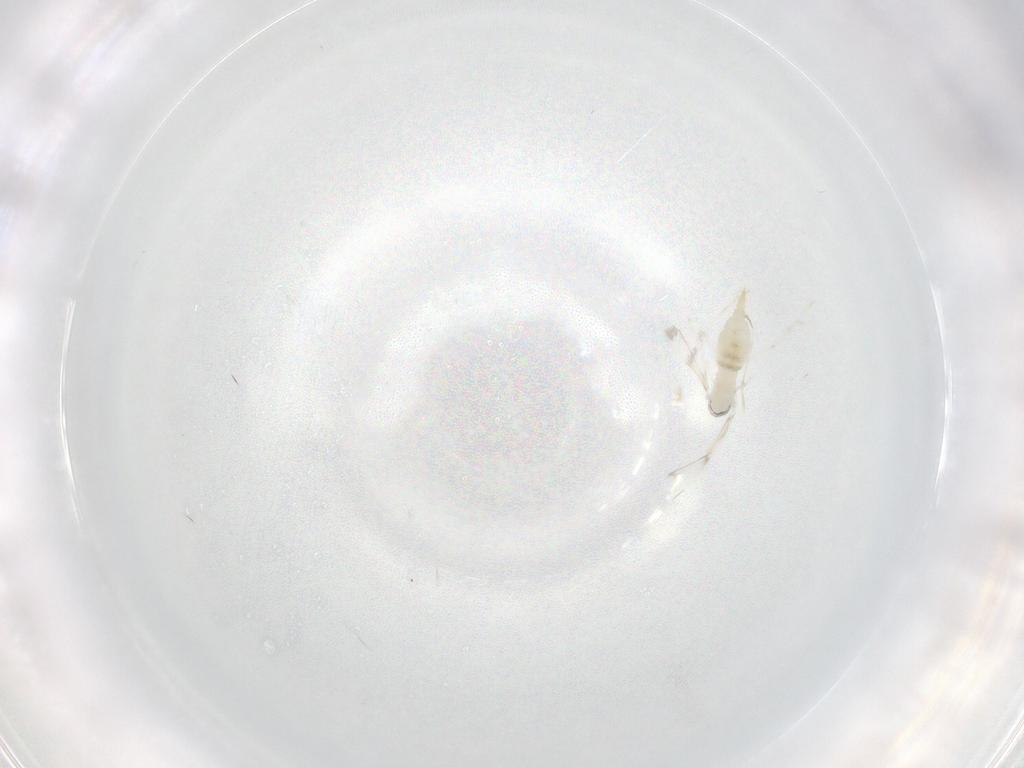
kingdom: Animalia
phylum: Arthropoda
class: Insecta
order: Diptera
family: Cecidomyiidae
